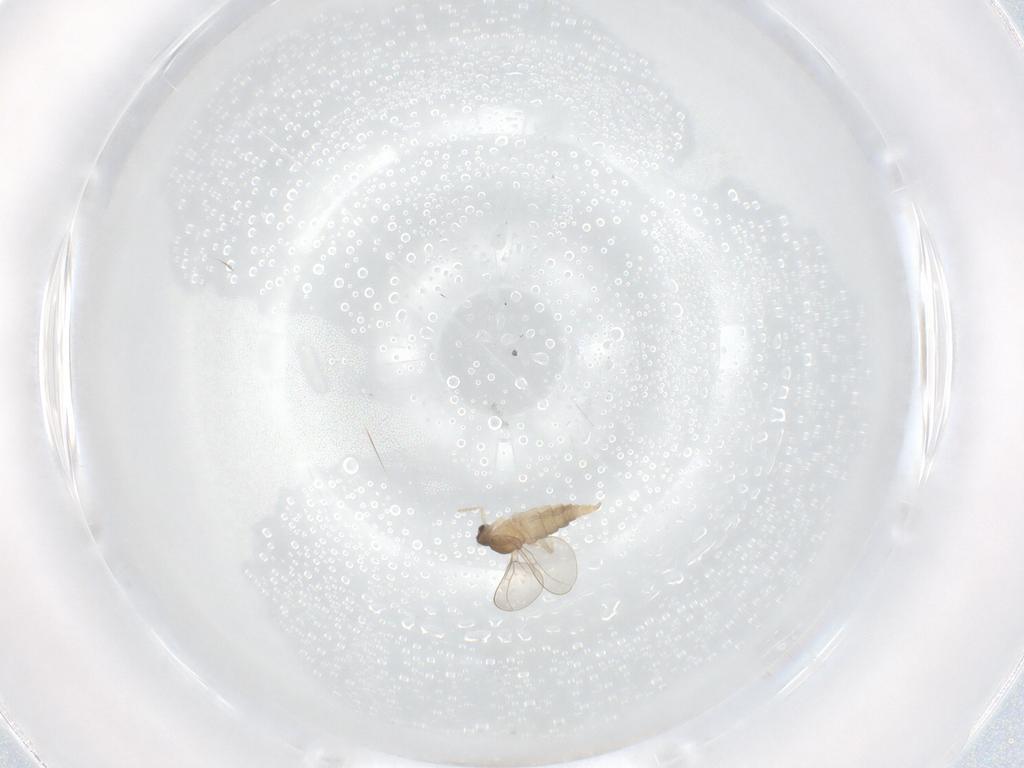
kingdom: Animalia
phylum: Arthropoda
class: Insecta
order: Diptera
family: Cecidomyiidae
